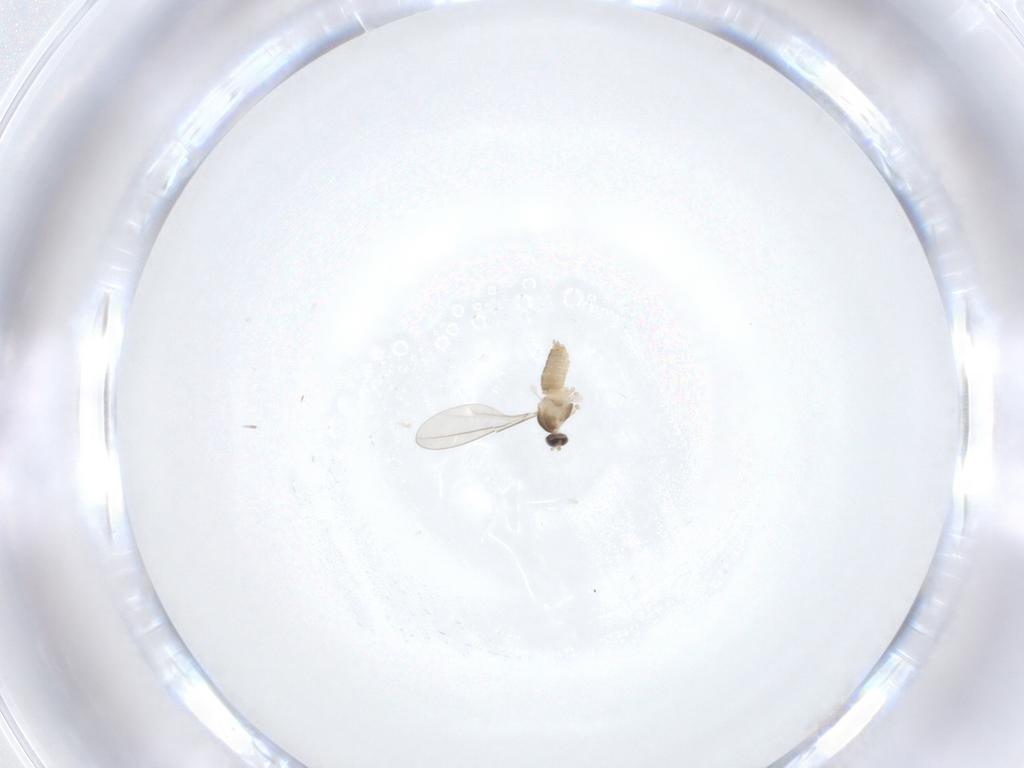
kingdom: Animalia
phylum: Arthropoda
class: Insecta
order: Diptera
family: Cecidomyiidae
